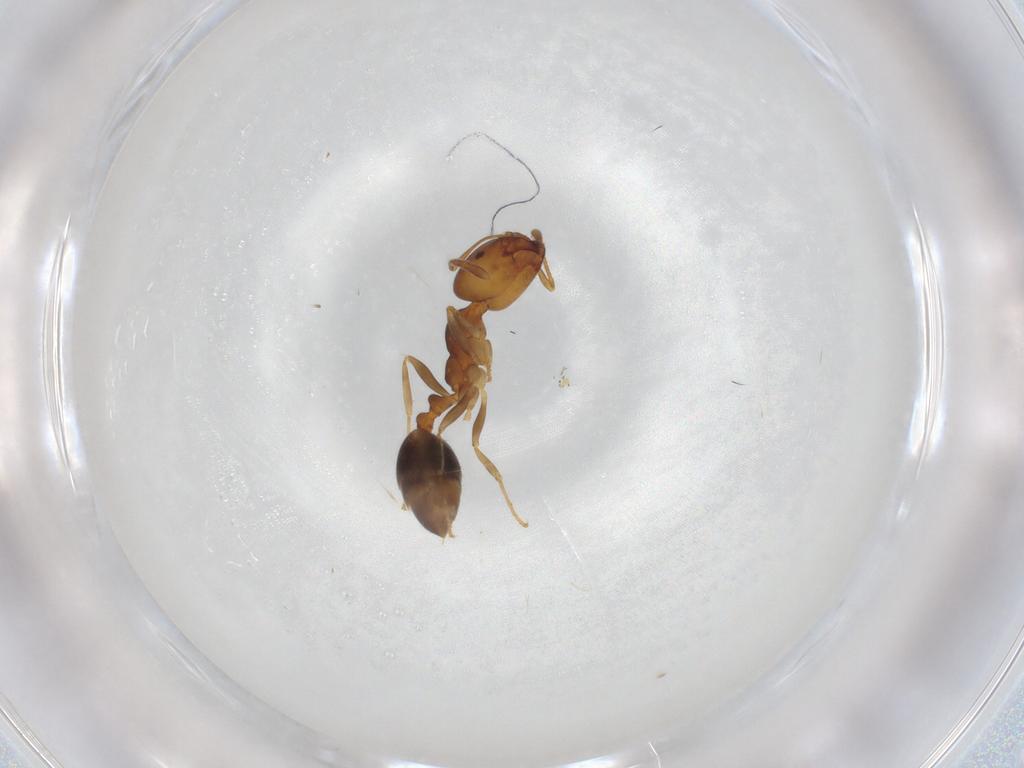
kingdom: Animalia
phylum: Arthropoda
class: Insecta
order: Hymenoptera
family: Formicidae
